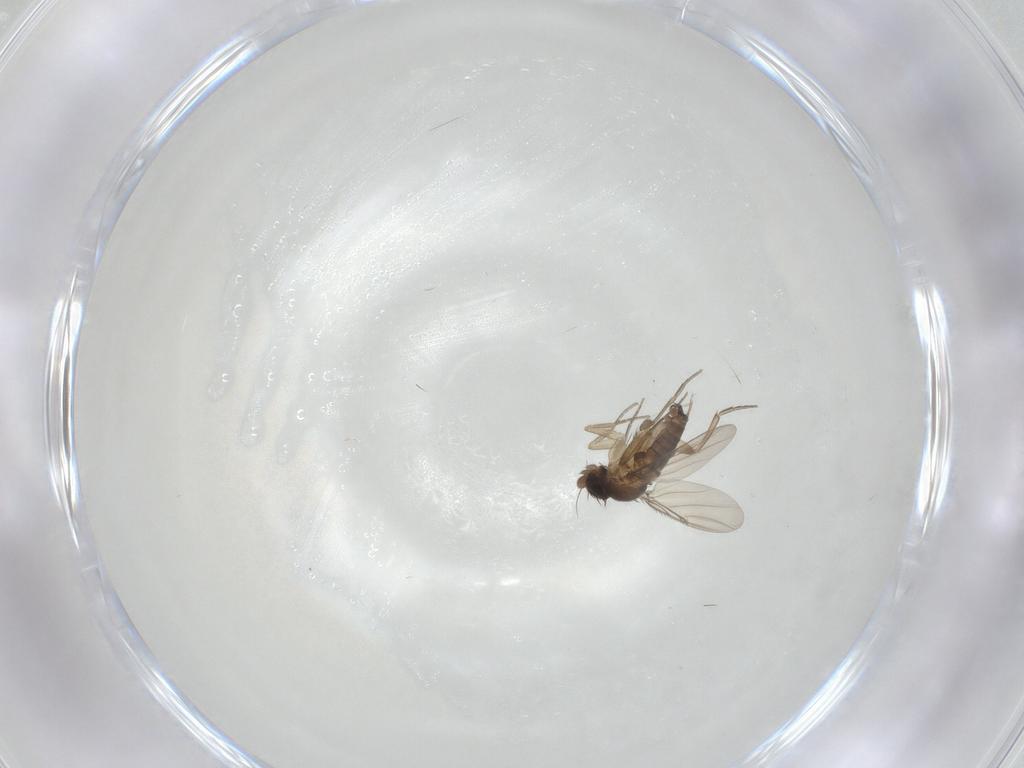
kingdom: Animalia
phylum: Arthropoda
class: Insecta
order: Diptera
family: Phoridae
